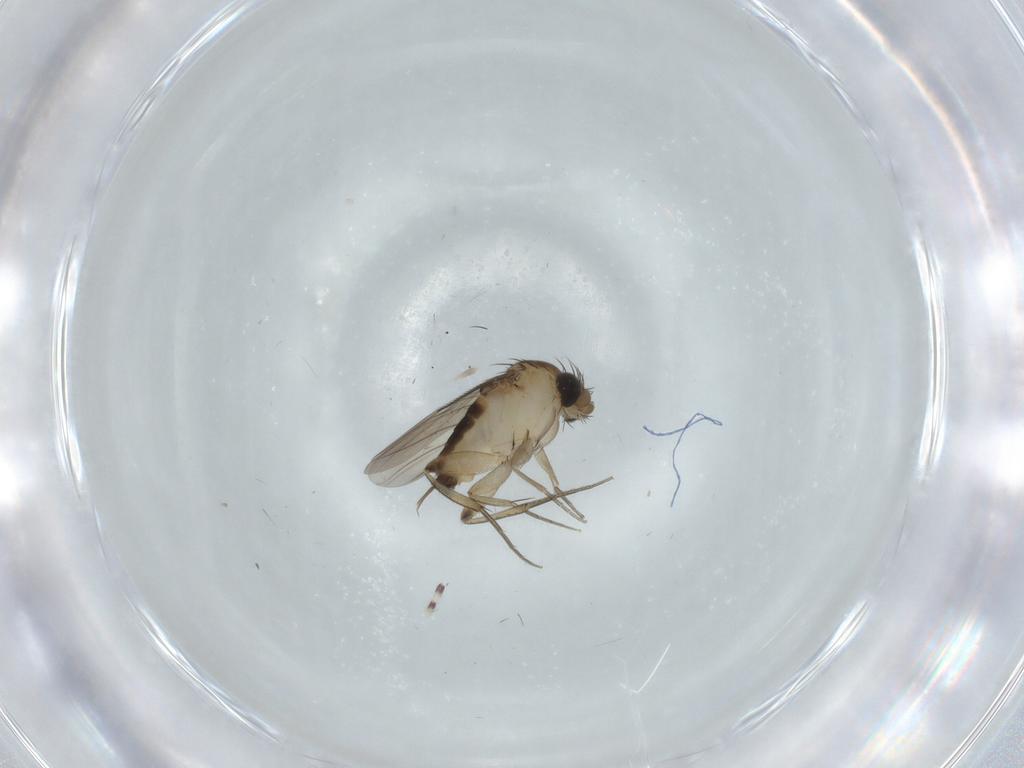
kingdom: Animalia
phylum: Arthropoda
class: Insecta
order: Diptera
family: Phoridae
